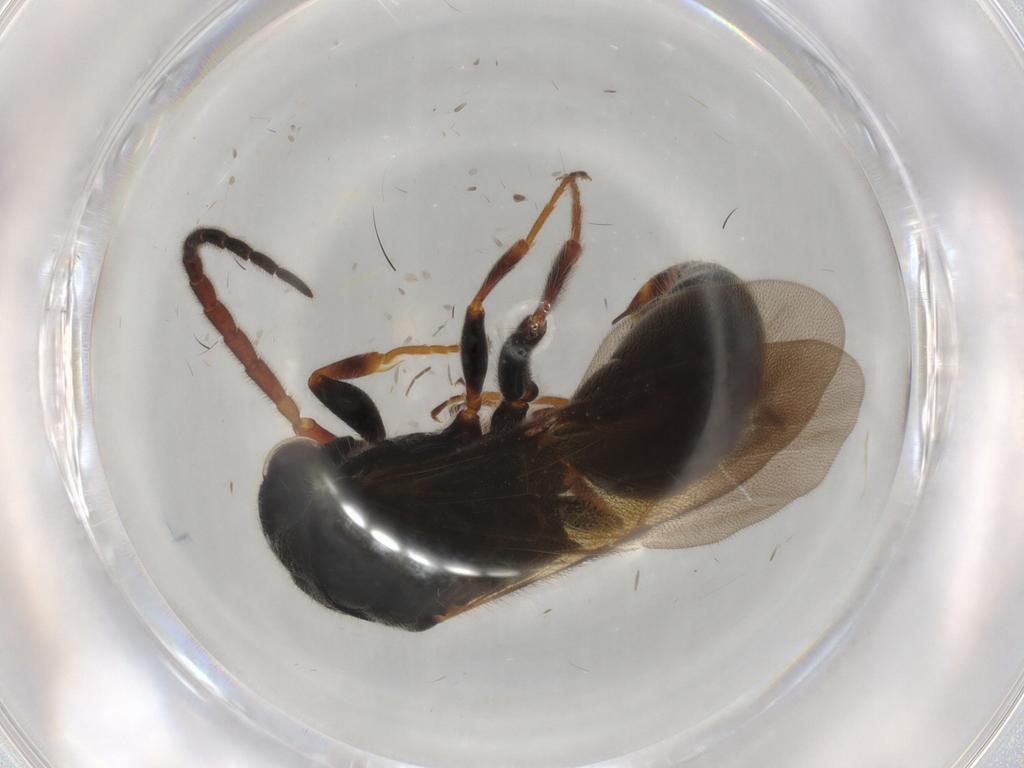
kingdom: Animalia
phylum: Arthropoda
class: Insecta
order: Hymenoptera
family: Bethylidae
